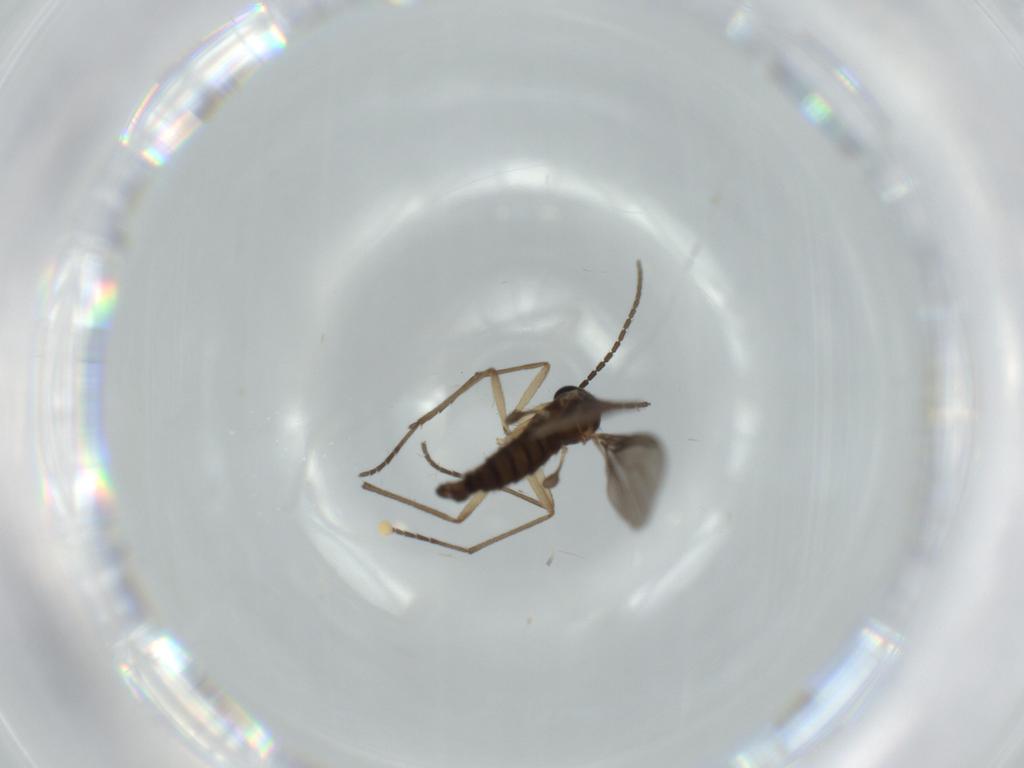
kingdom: Animalia
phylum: Arthropoda
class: Insecta
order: Diptera
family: Sciaridae
